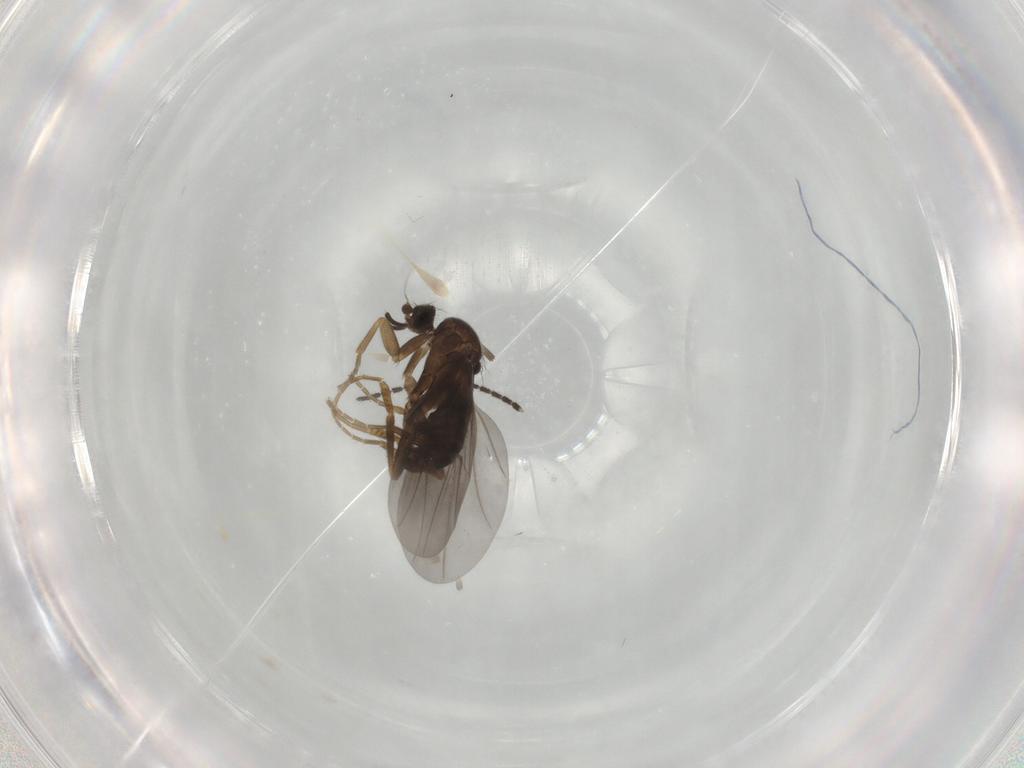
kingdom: Animalia
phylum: Arthropoda
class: Insecta
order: Diptera
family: Phoridae
